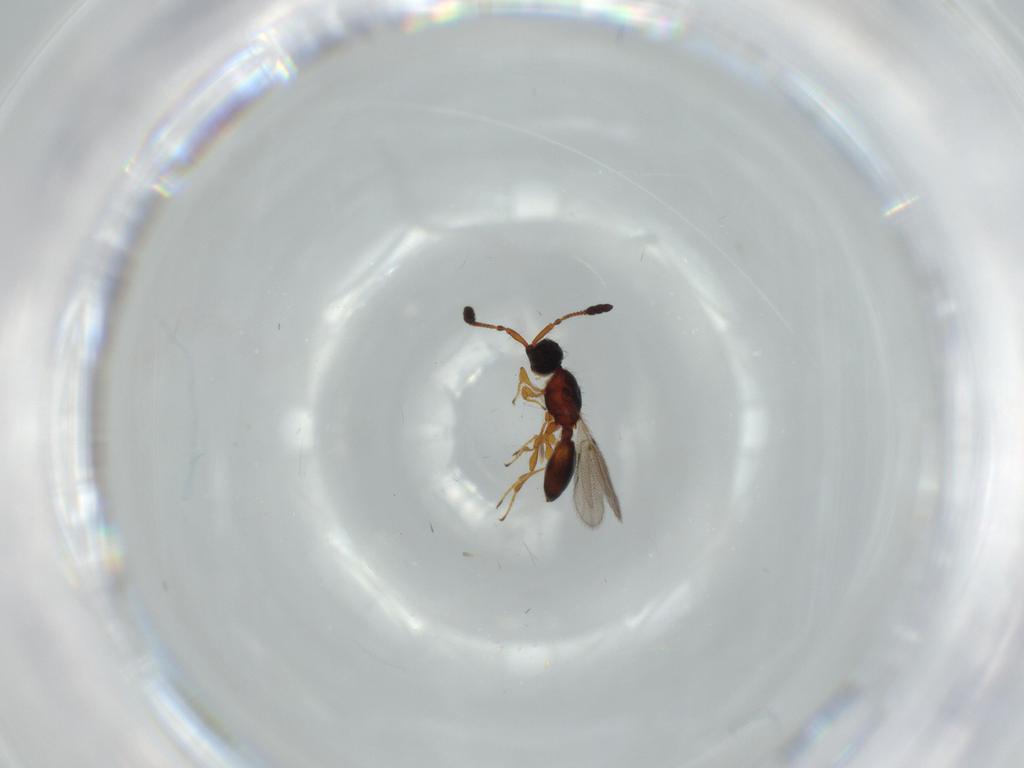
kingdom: Animalia
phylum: Arthropoda
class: Insecta
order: Hymenoptera
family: Diapriidae
